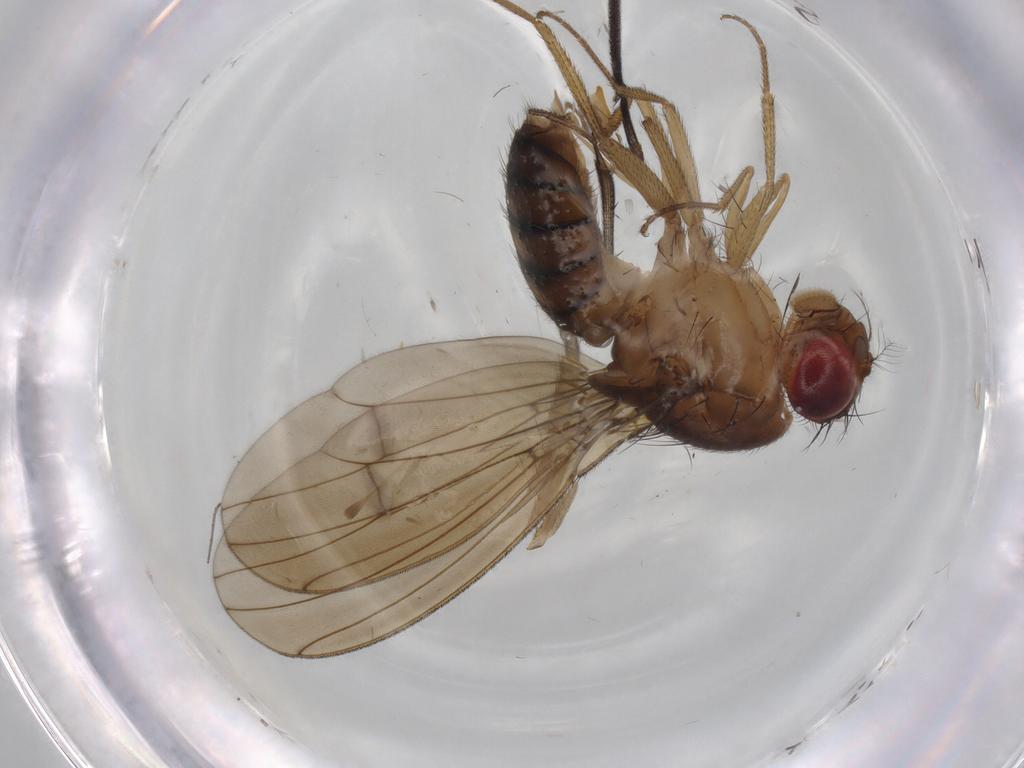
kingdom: Animalia
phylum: Arthropoda
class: Insecta
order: Diptera
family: Drosophilidae
